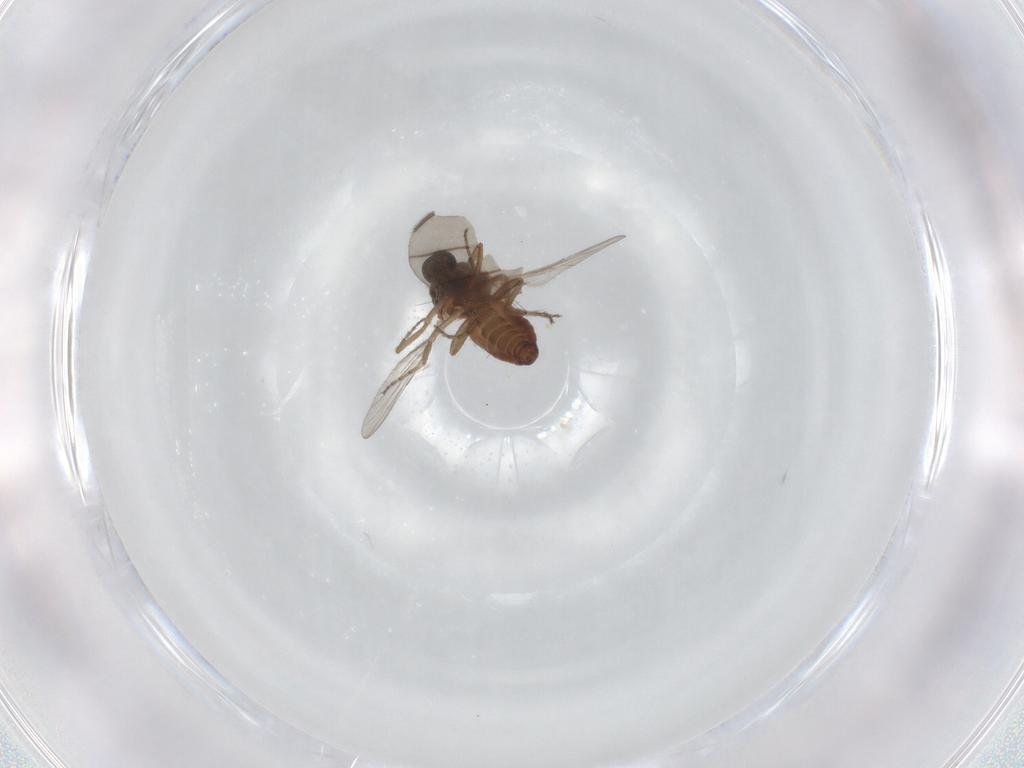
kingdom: Animalia
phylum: Arthropoda
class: Insecta
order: Diptera
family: Ceratopogonidae
